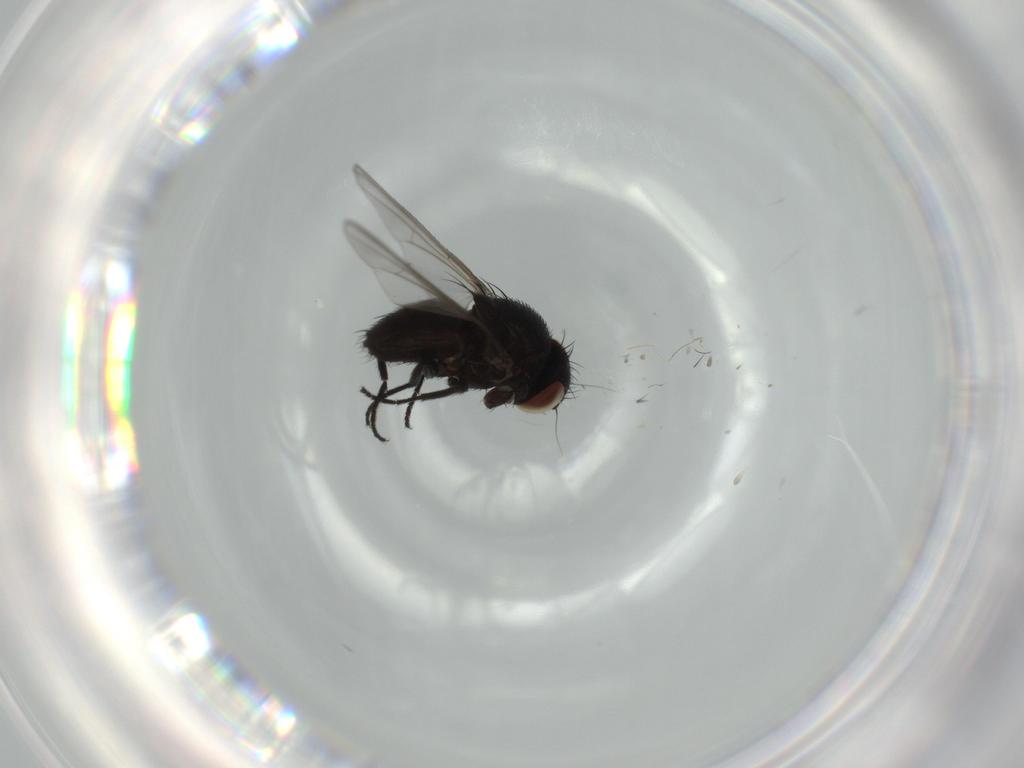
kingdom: Animalia
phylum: Arthropoda
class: Insecta
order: Diptera
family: Milichiidae
